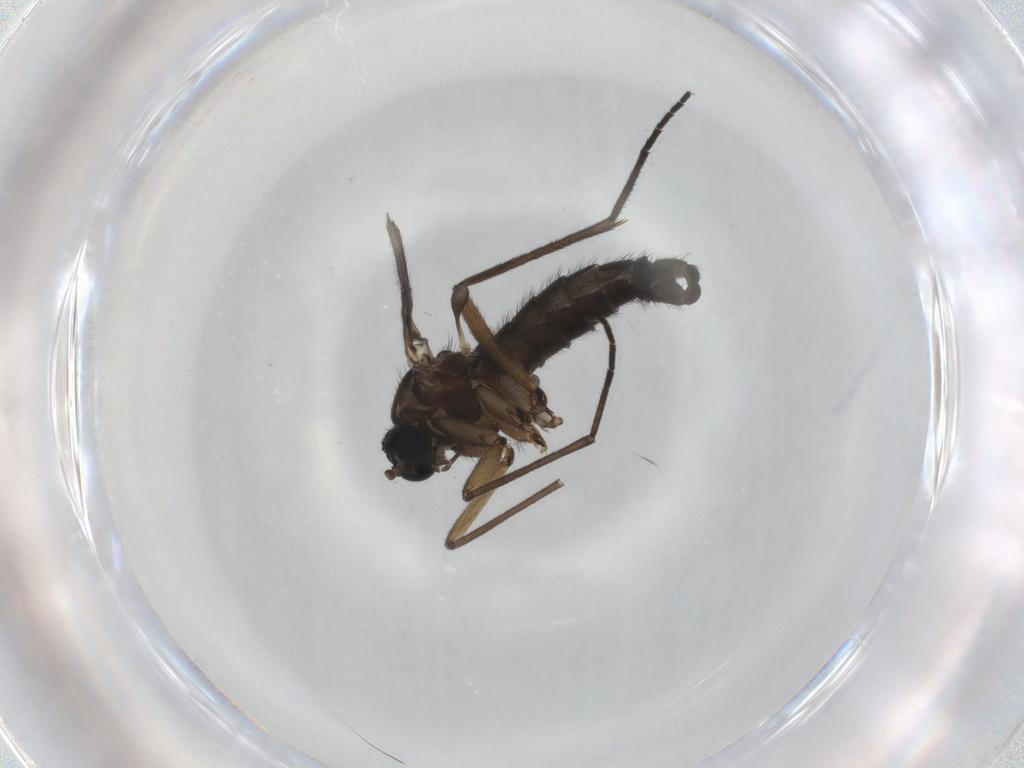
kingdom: Animalia
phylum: Arthropoda
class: Insecta
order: Diptera
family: Sciaridae
